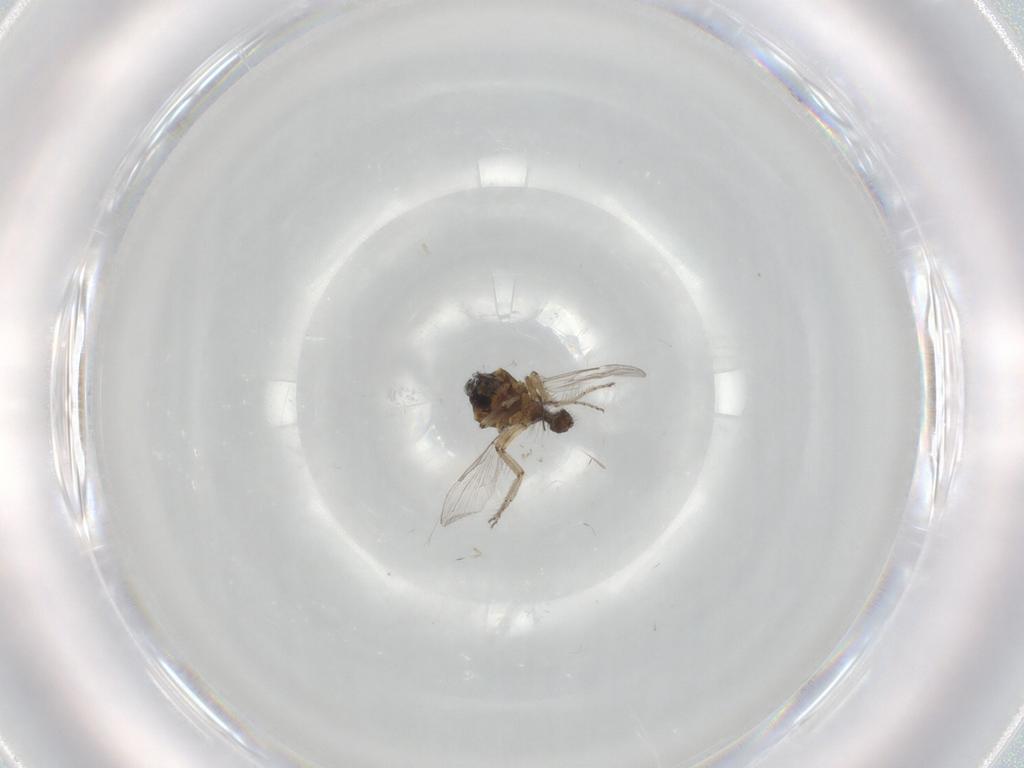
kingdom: Animalia
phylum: Arthropoda
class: Insecta
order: Diptera
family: Ceratopogonidae
